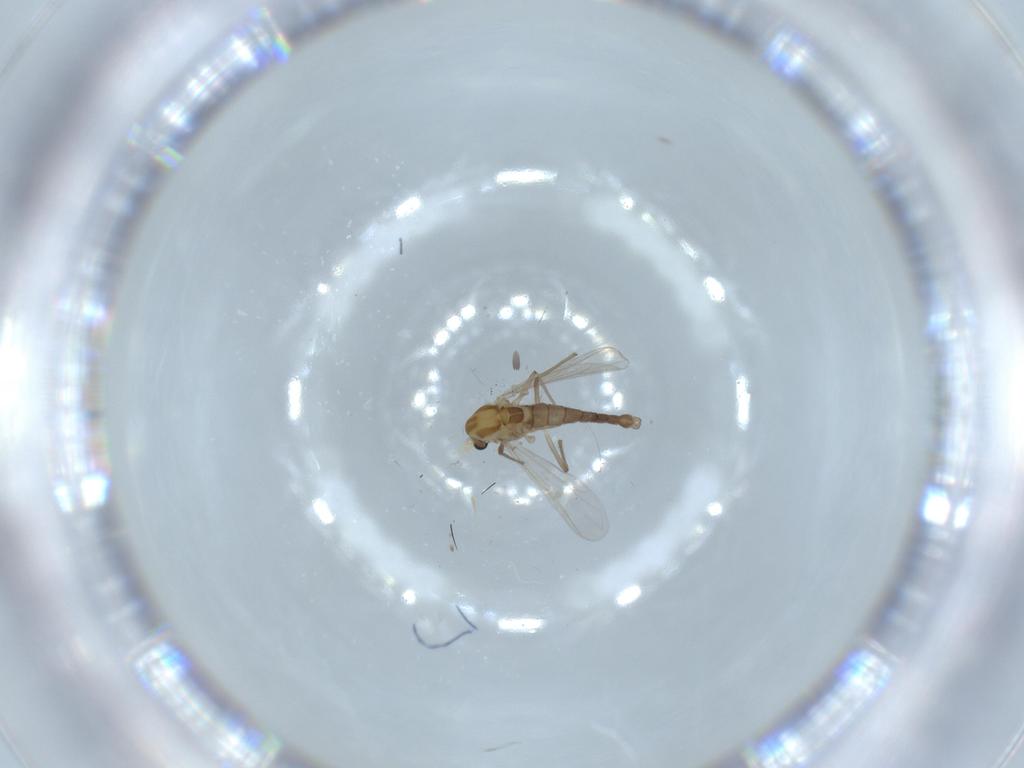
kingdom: Animalia
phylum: Arthropoda
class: Insecta
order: Diptera
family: Chironomidae
